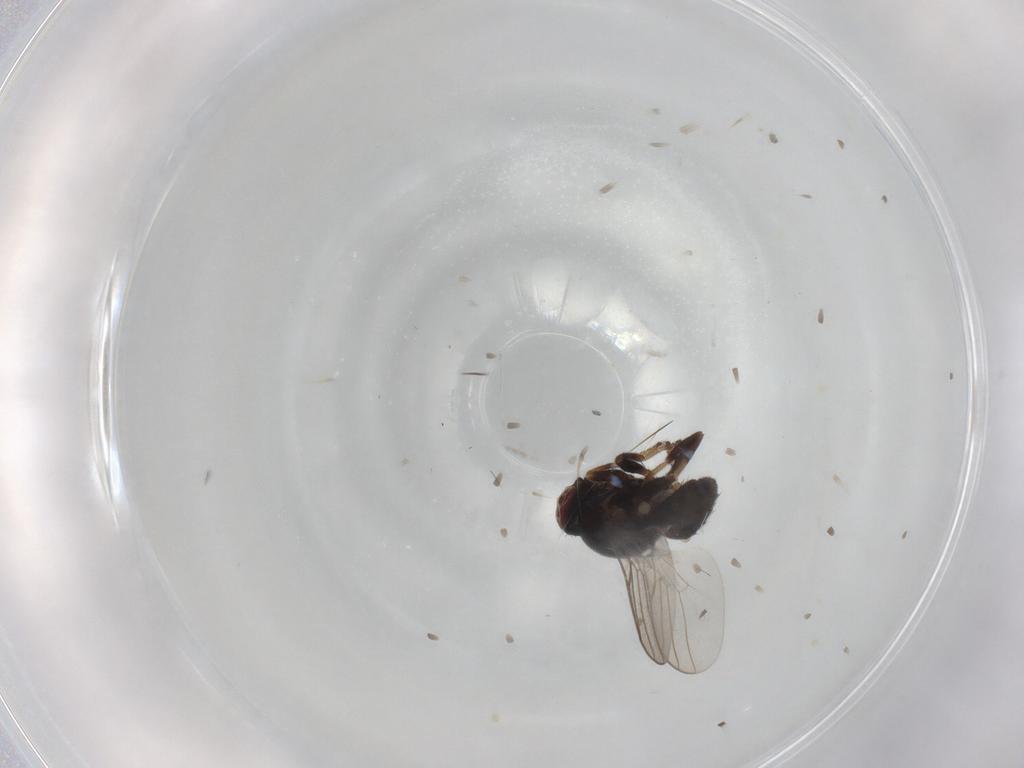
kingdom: Animalia
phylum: Arthropoda
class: Insecta
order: Diptera
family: Chloropidae
